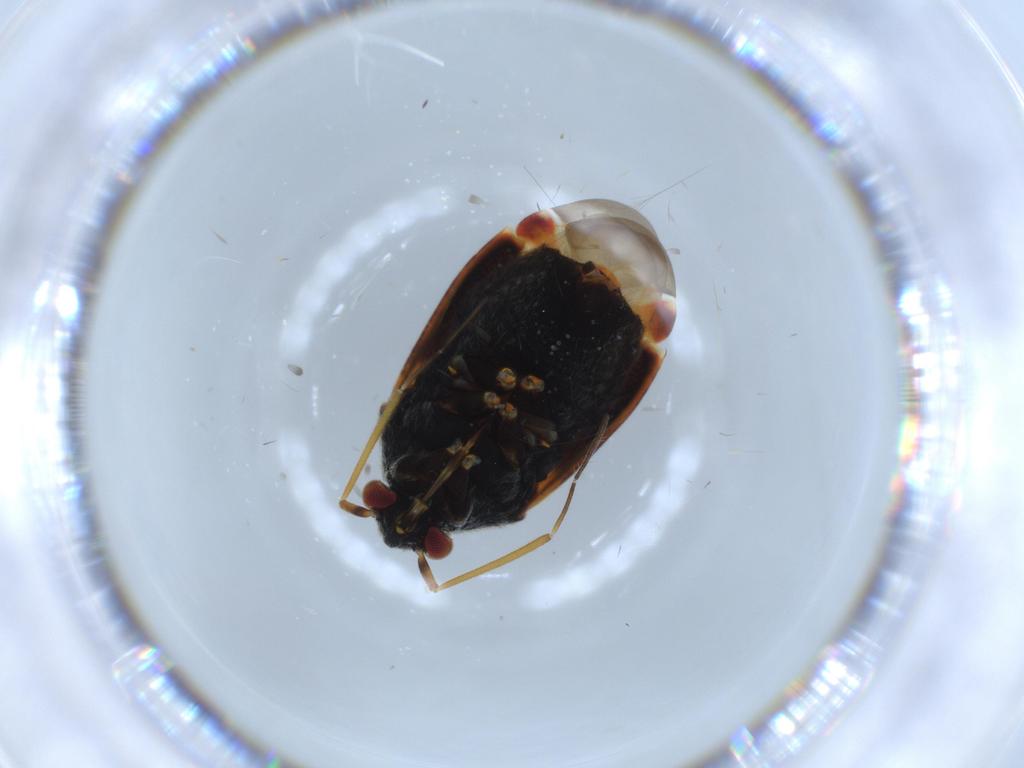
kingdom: Animalia
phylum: Arthropoda
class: Insecta
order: Hemiptera
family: Miridae
